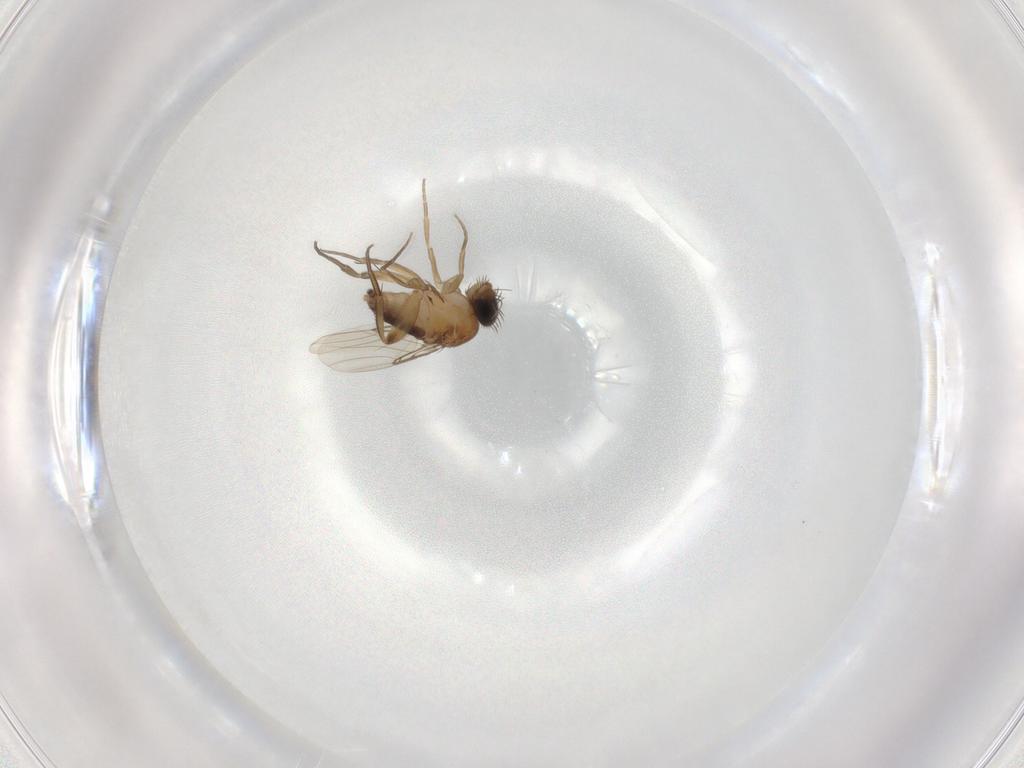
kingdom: Animalia
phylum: Arthropoda
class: Insecta
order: Diptera
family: Phoridae
